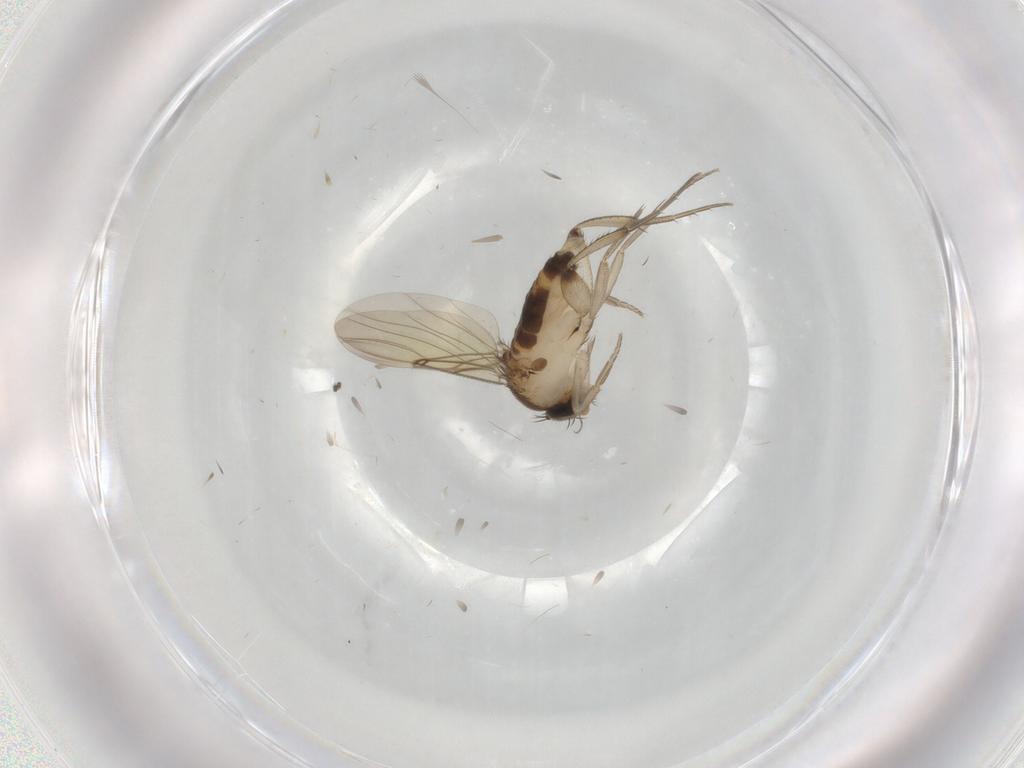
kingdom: Animalia
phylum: Arthropoda
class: Insecta
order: Diptera
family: Phoridae
